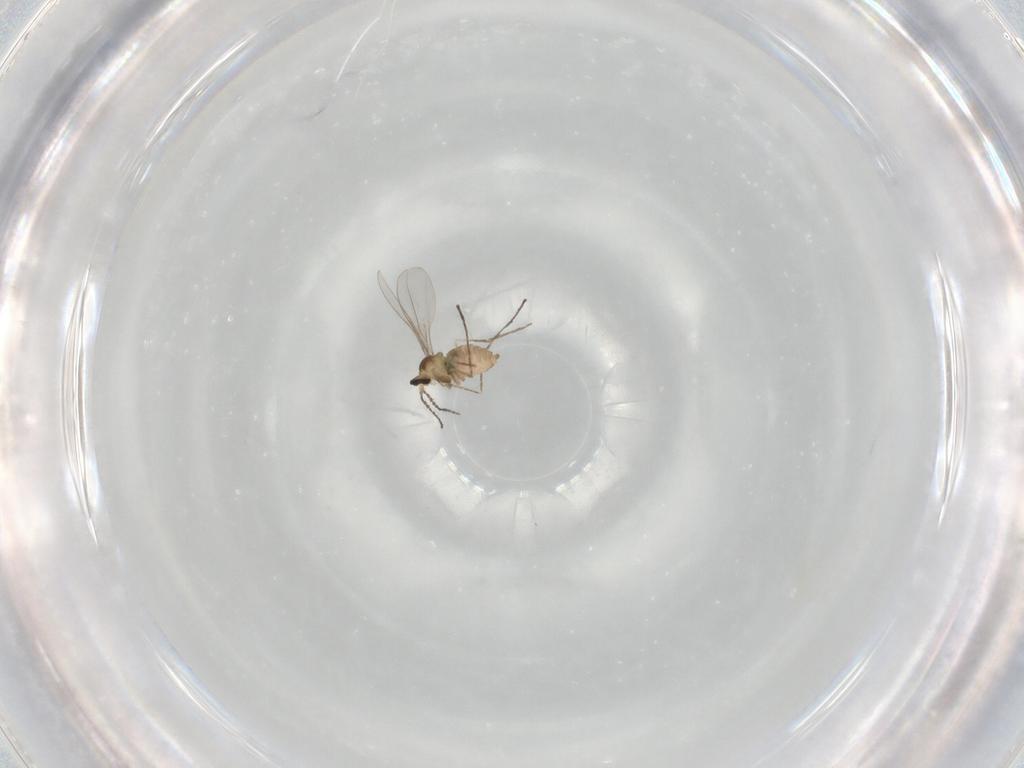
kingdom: Animalia
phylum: Arthropoda
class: Insecta
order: Diptera
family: Cecidomyiidae
